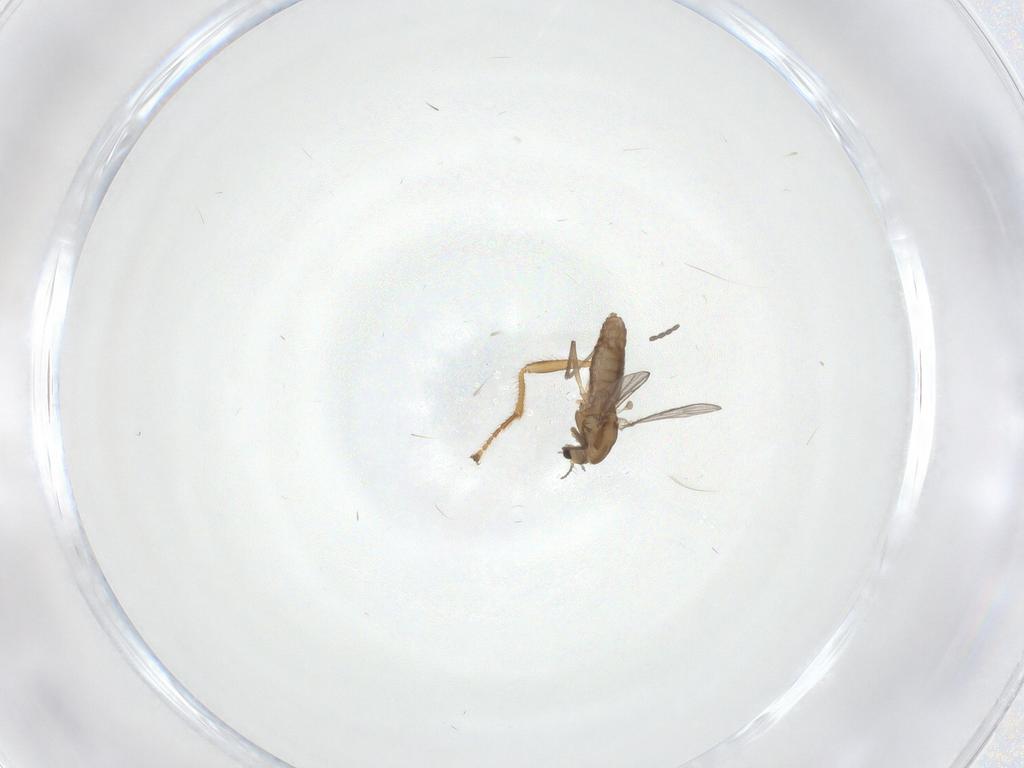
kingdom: Animalia
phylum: Arthropoda
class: Insecta
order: Diptera
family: Sciaridae
